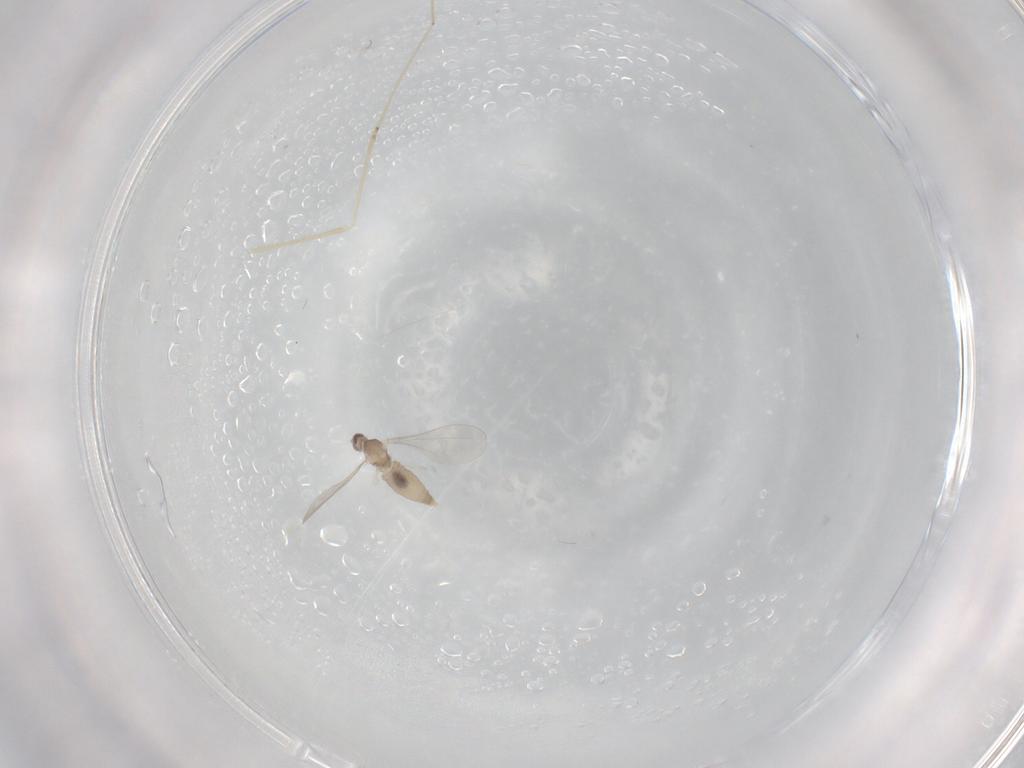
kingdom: Animalia
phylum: Arthropoda
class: Insecta
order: Diptera
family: Cecidomyiidae
